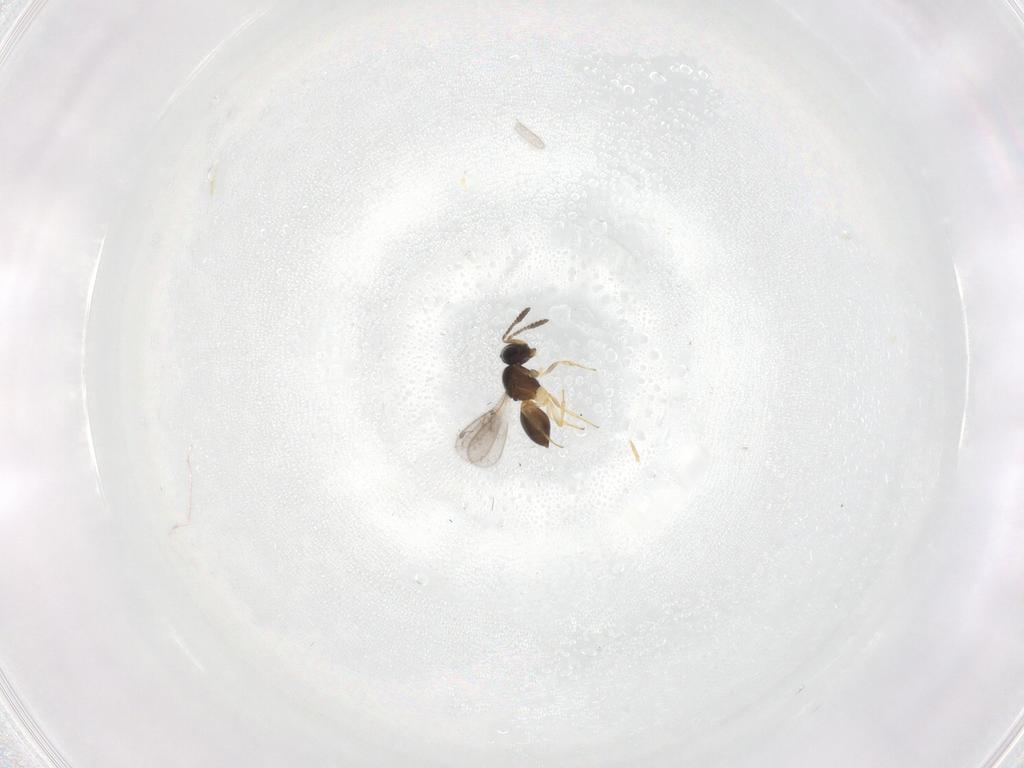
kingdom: Animalia
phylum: Arthropoda
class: Insecta
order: Hymenoptera
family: Scelionidae
